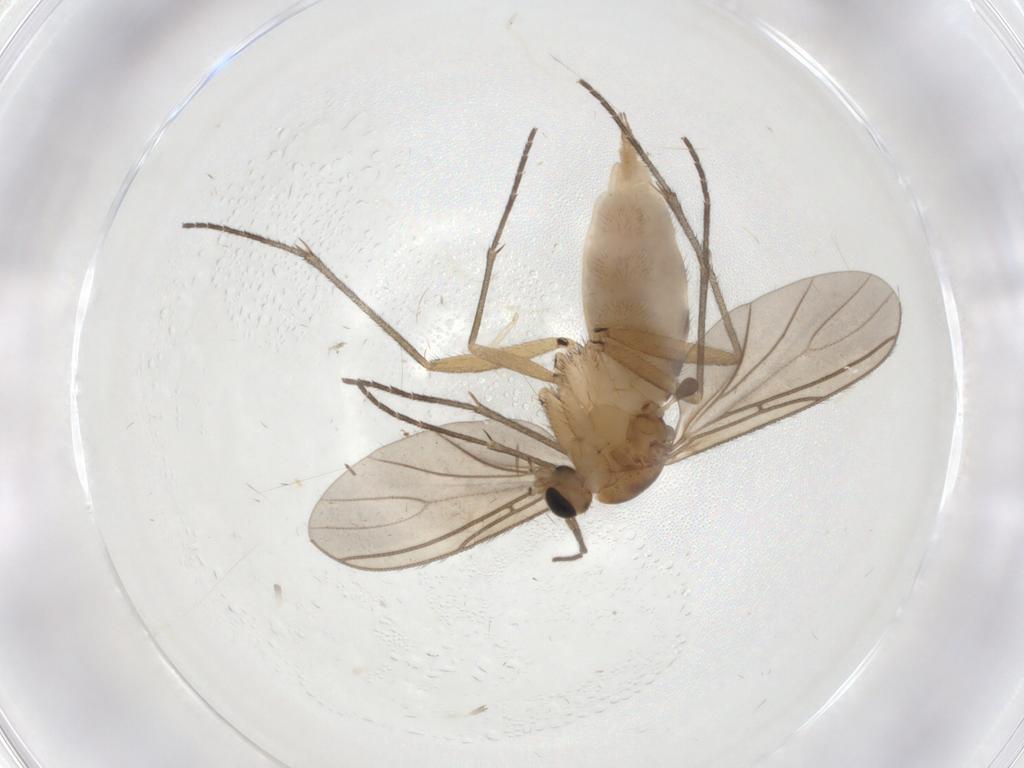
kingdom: Animalia
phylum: Arthropoda
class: Insecta
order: Diptera
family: Sciaridae
